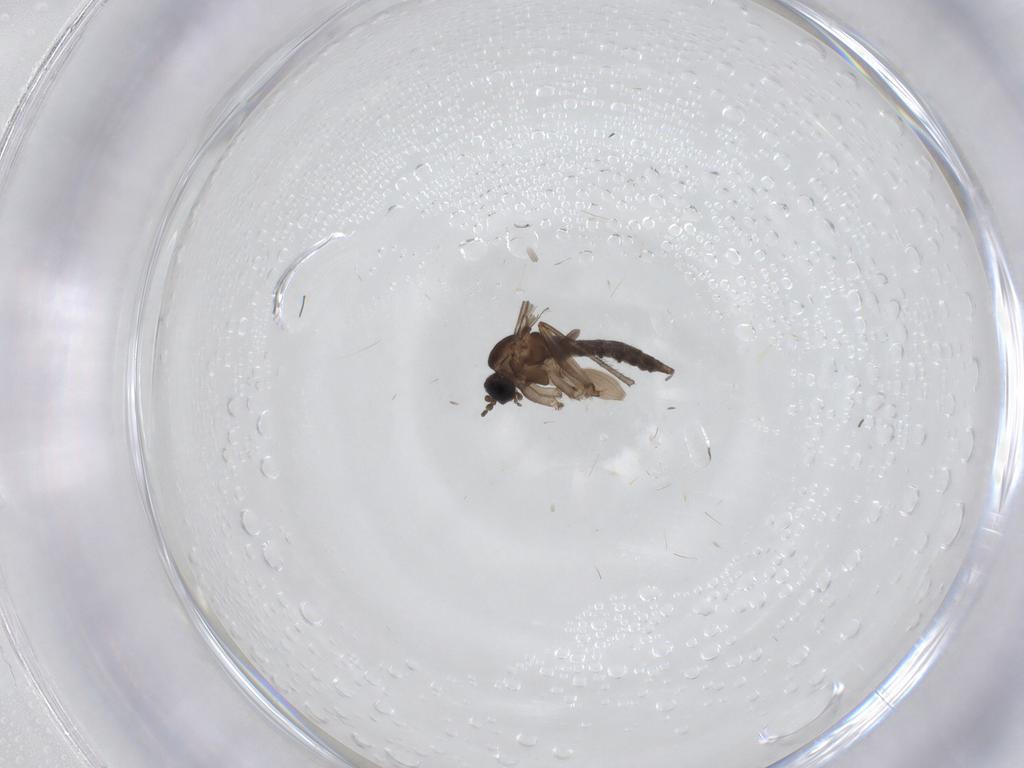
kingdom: Animalia
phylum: Arthropoda
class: Insecta
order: Diptera
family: Sciaridae
